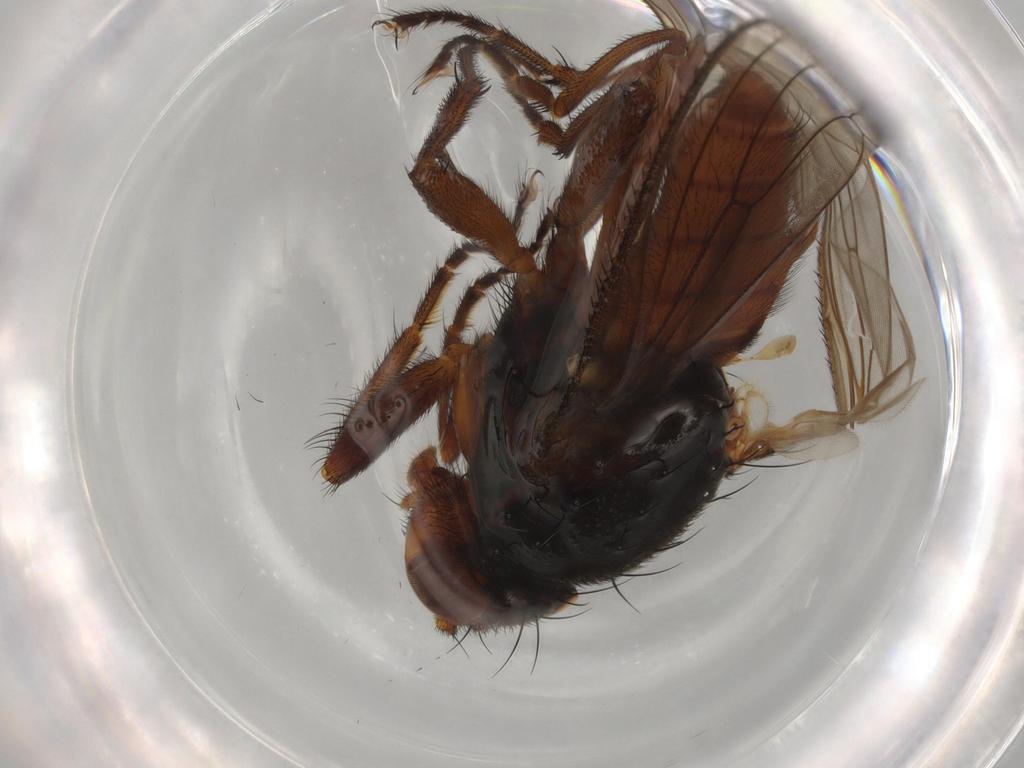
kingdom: Animalia
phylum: Arthropoda
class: Insecta
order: Diptera
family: Heleomyzidae
